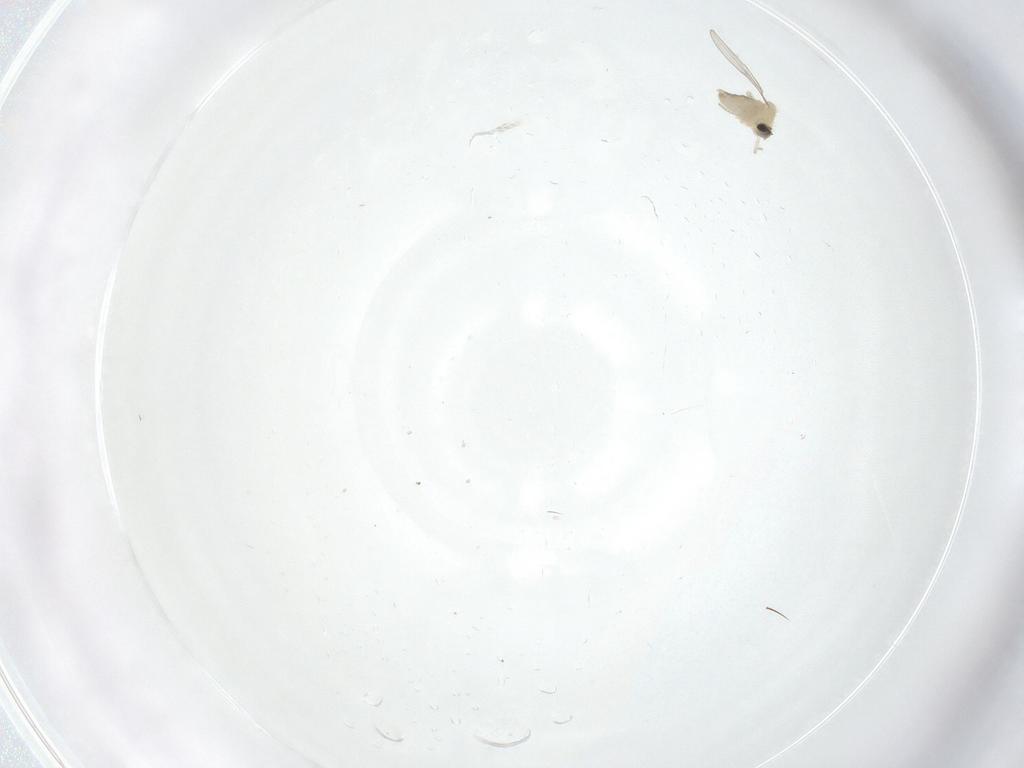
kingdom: Animalia
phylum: Arthropoda
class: Insecta
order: Diptera
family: Cecidomyiidae
